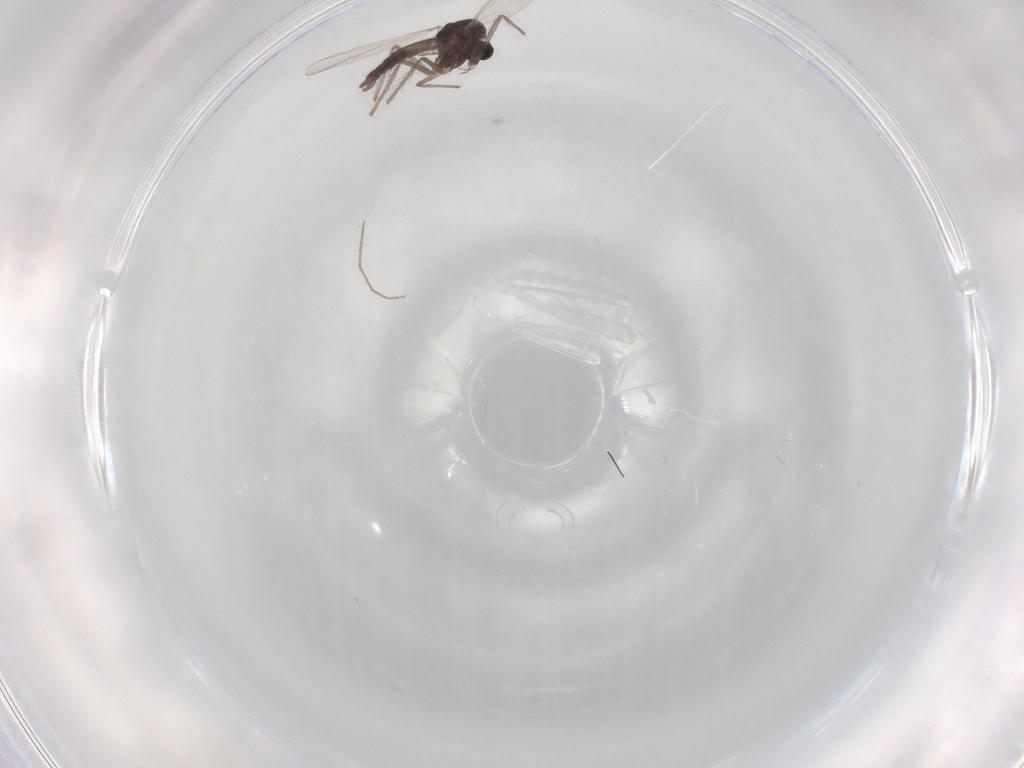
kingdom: Animalia
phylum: Arthropoda
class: Insecta
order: Diptera
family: Chironomidae
